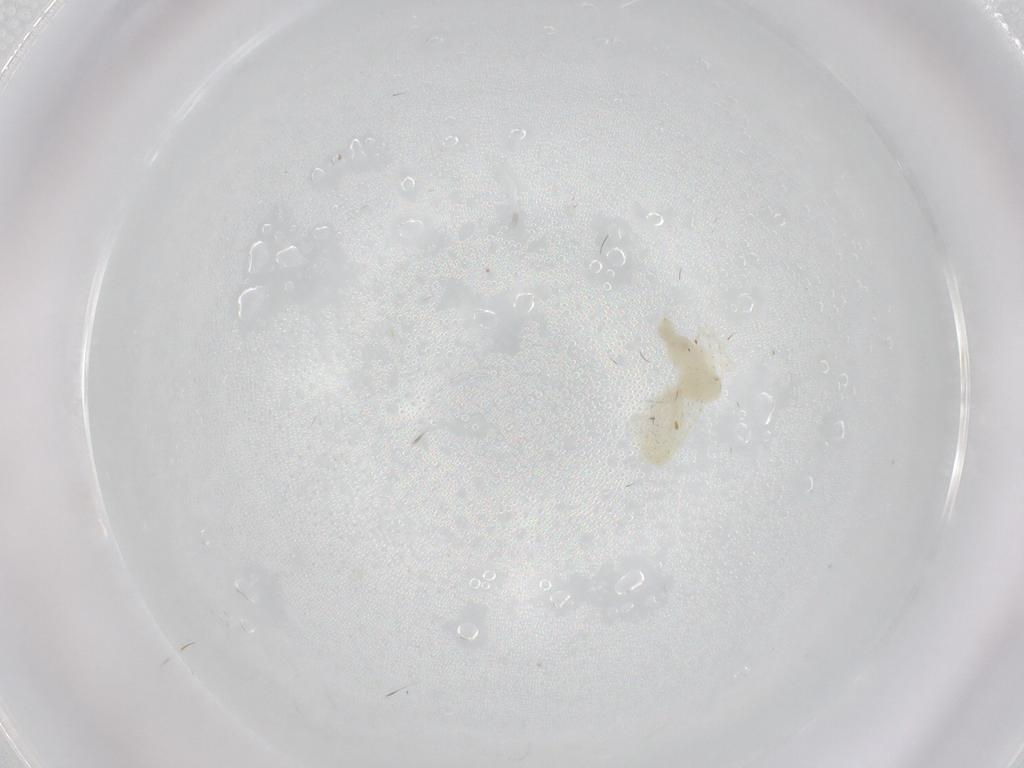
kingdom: Animalia
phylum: Arthropoda
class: Insecta
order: Hemiptera
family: Aleyrodidae
